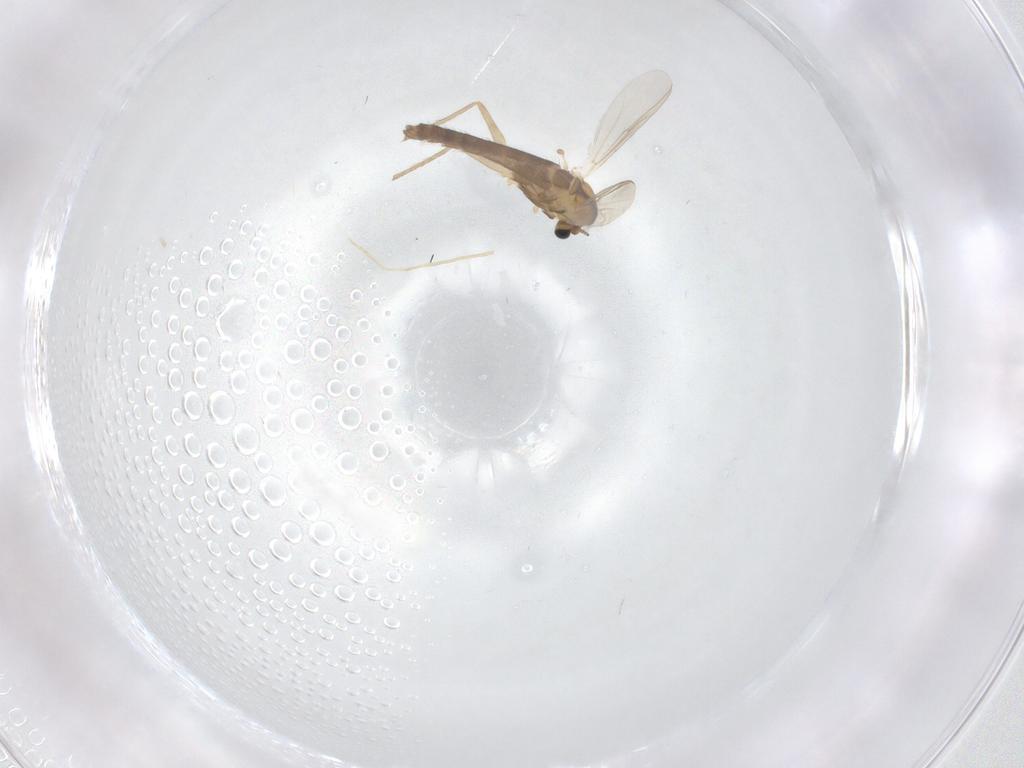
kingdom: Animalia
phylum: Arthropoda
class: Insecta
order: Diptera
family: Chironomidae
